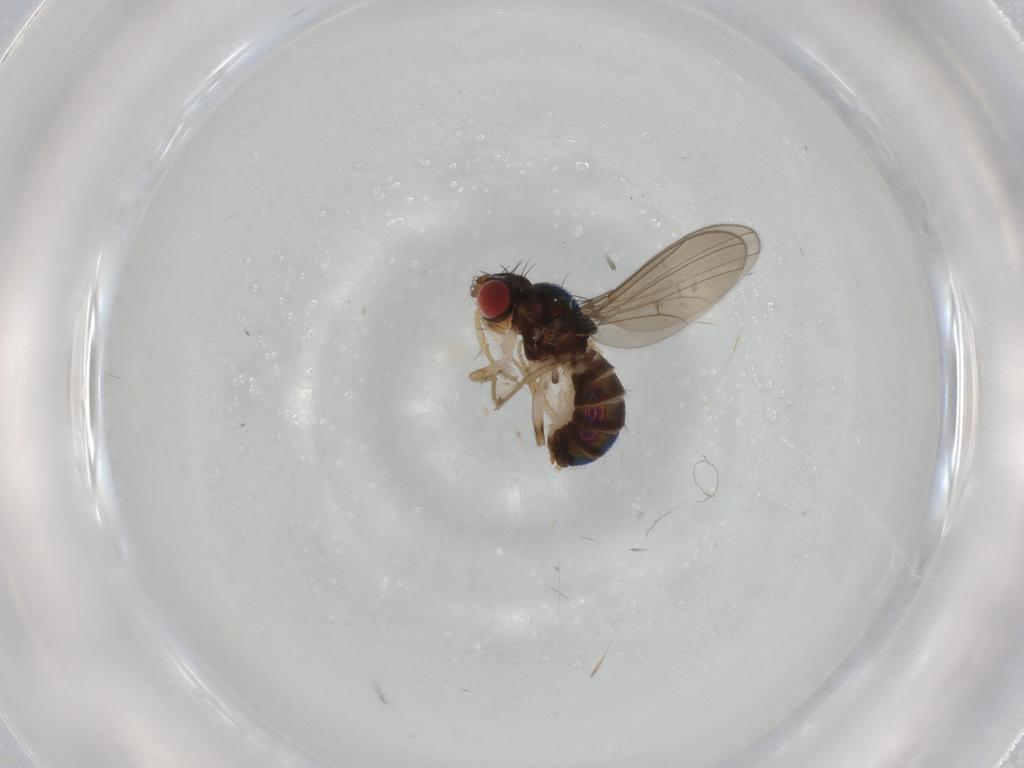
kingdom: Animalia
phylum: Arthropoda
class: Insecta
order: Diptera
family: Drosophilidae
